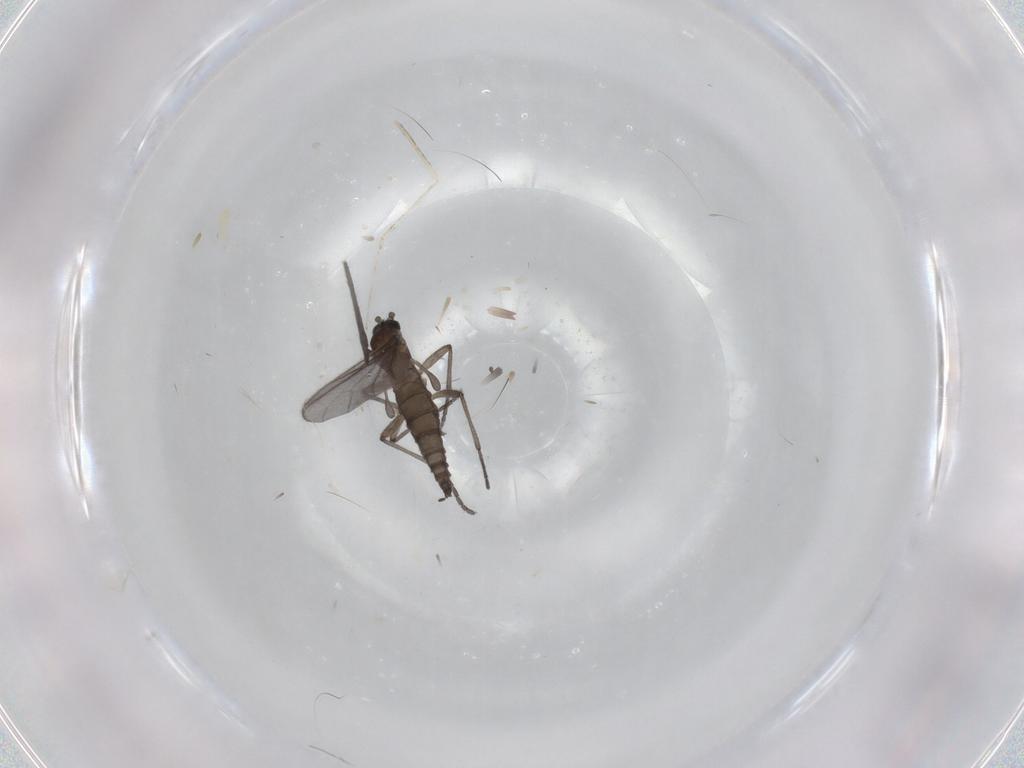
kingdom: Animalia
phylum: Arthropoda
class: Insecta
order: Diptera
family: Sciaridae
